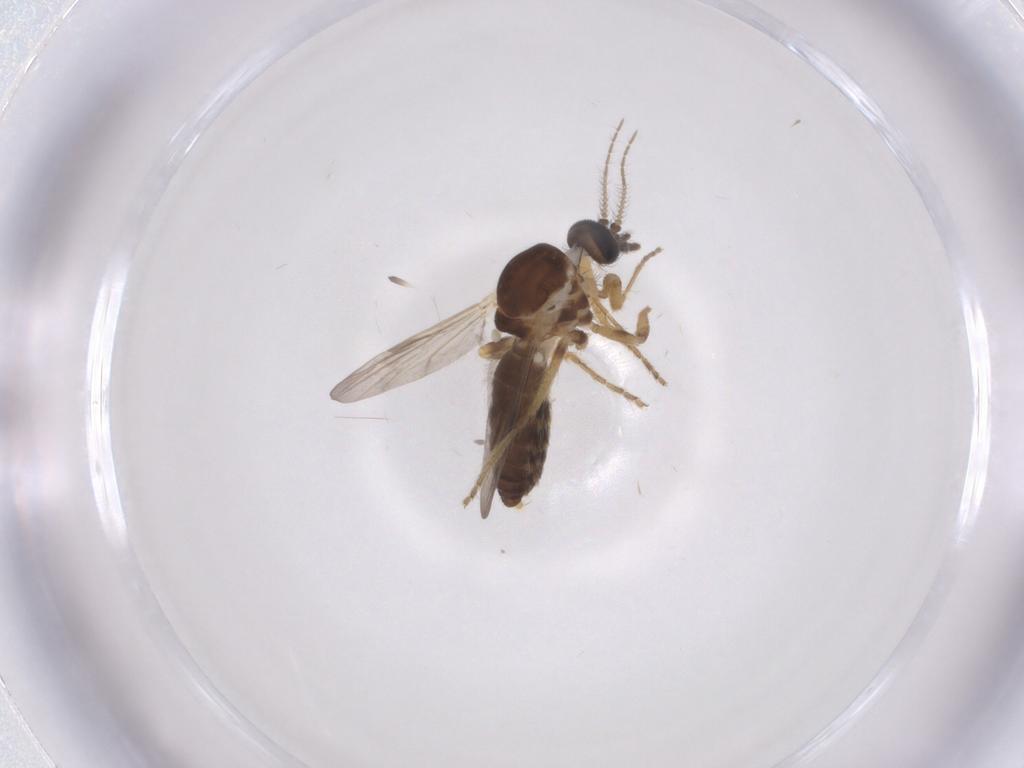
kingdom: Animalia
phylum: Arthropoda
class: Insecta
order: Diptera
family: Ceratopogonidae
